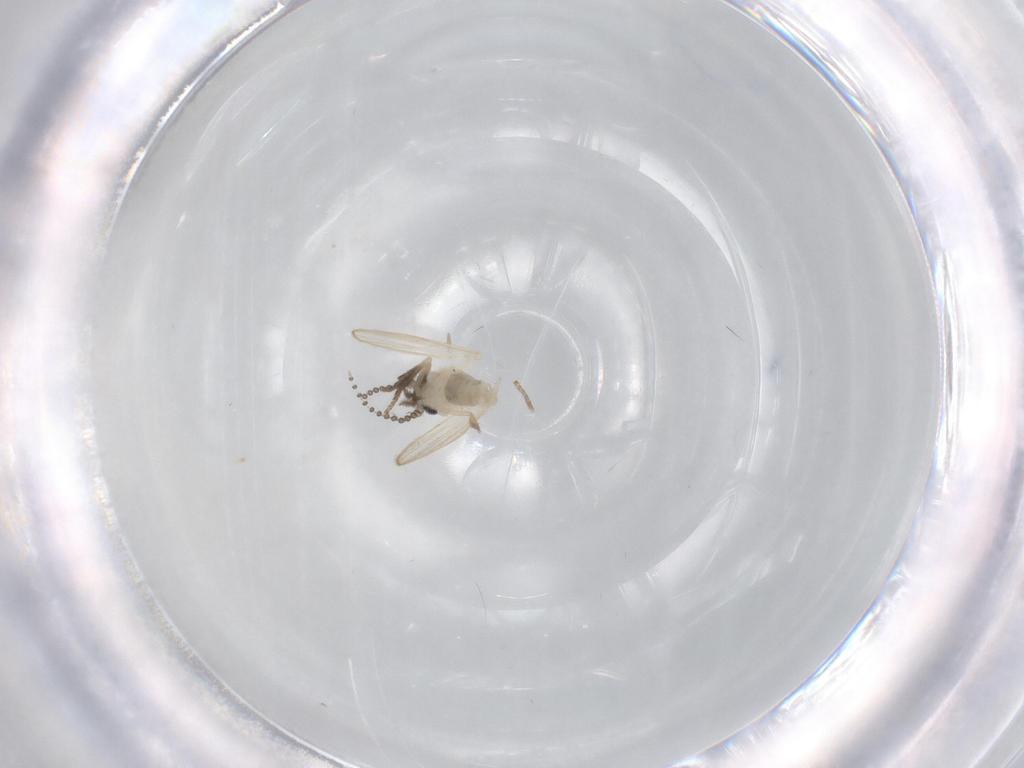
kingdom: Animalia
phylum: Arthropoda
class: Insecta
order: Diptera
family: Psychodidae
